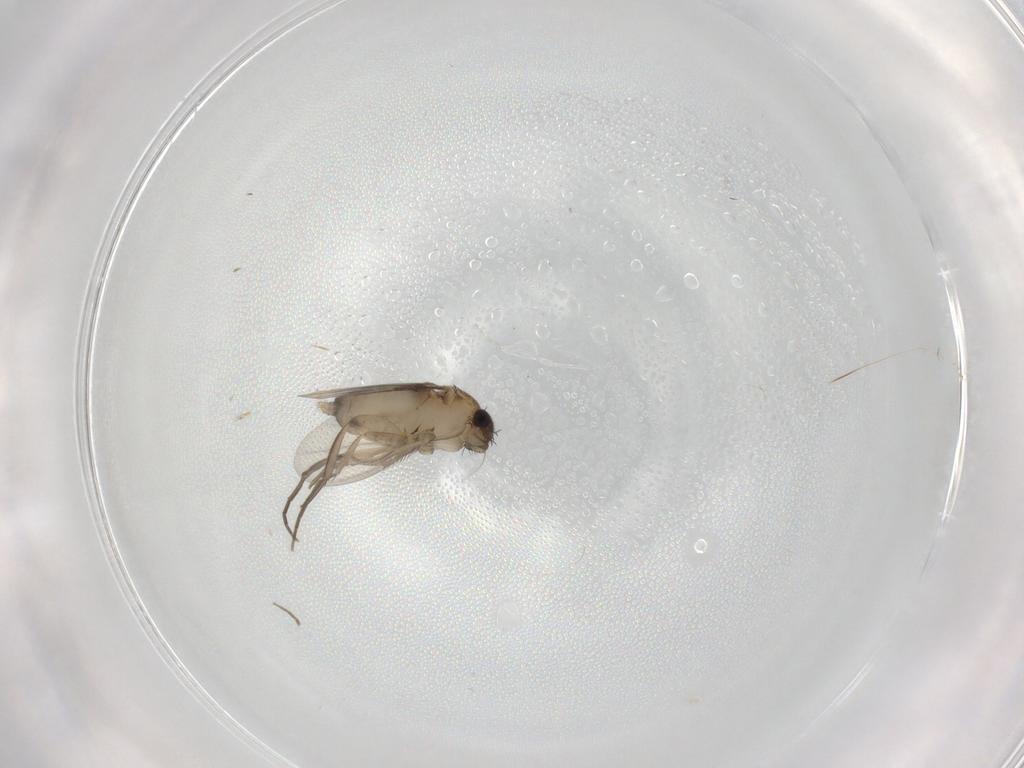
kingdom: Animalia
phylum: Arthropoda
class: Insecta
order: Diptera
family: Phoridae
